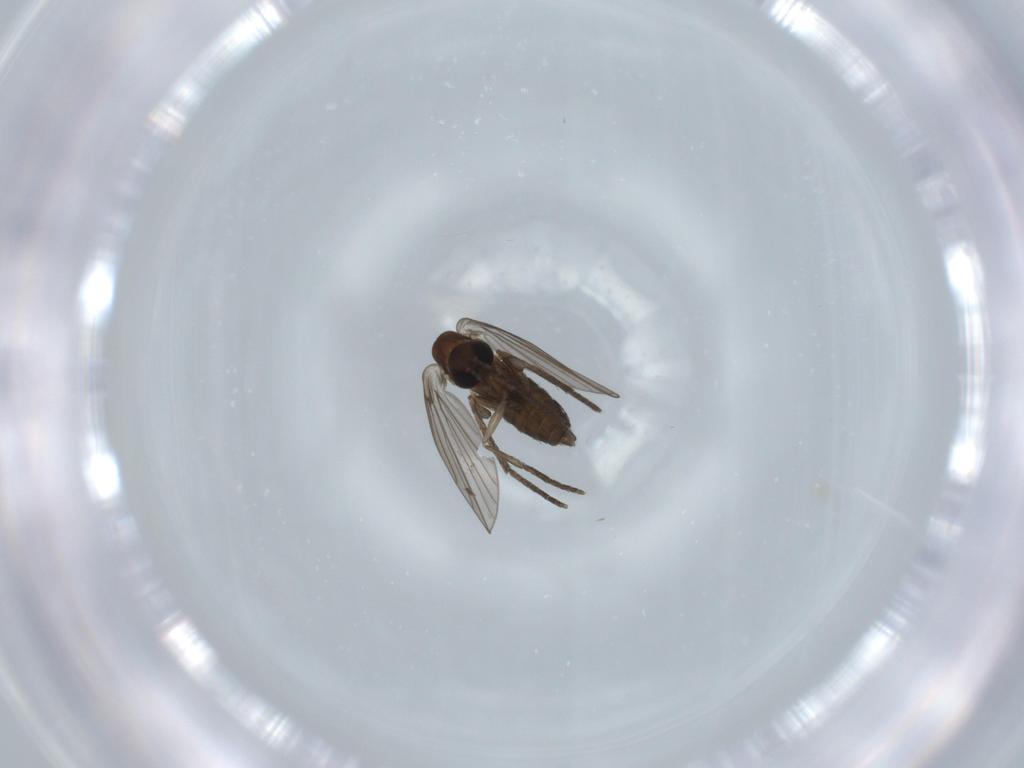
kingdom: Animalia
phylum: Arthropoda
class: Insecta
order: Diptera
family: Psychodidae
